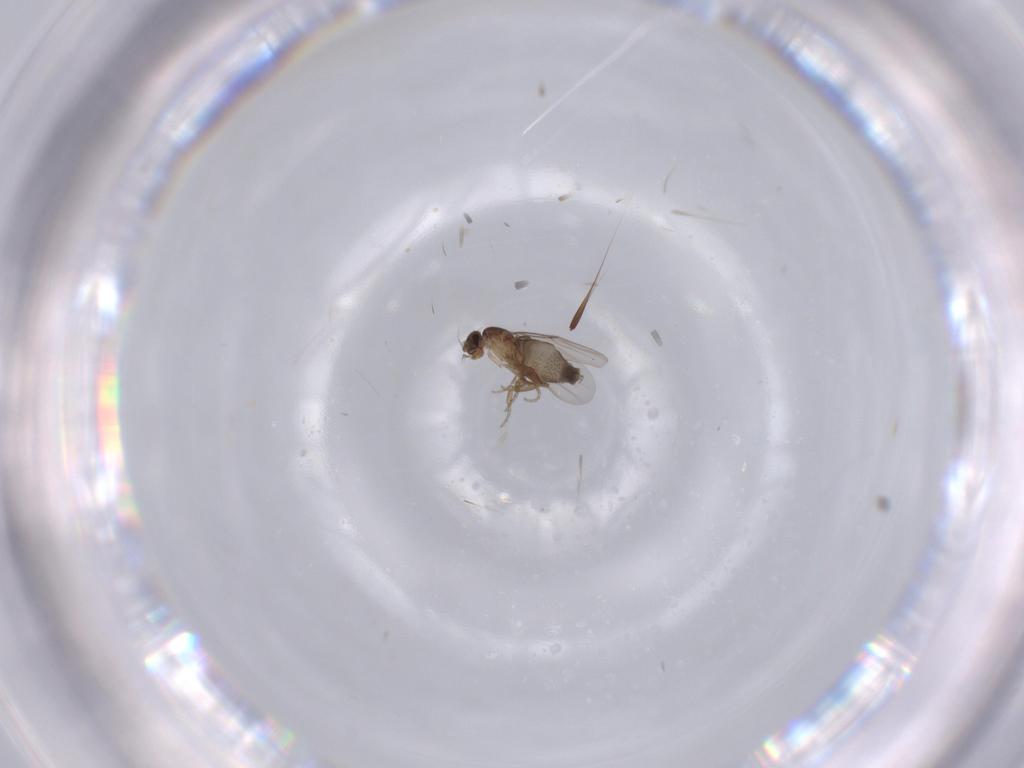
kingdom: Animalia
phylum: Arthropoda
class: Insecta
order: Diptera
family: Phoridae
